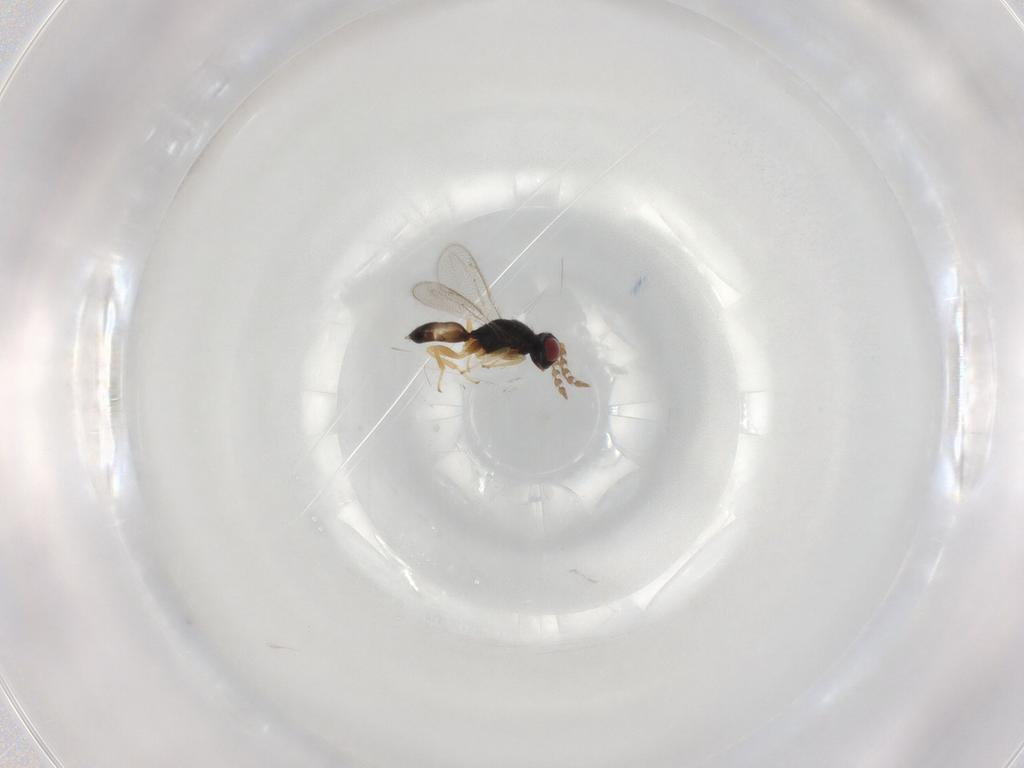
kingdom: Animalia
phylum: Arthropoda
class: Insecta
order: Hymenoptera
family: Eulophidae
